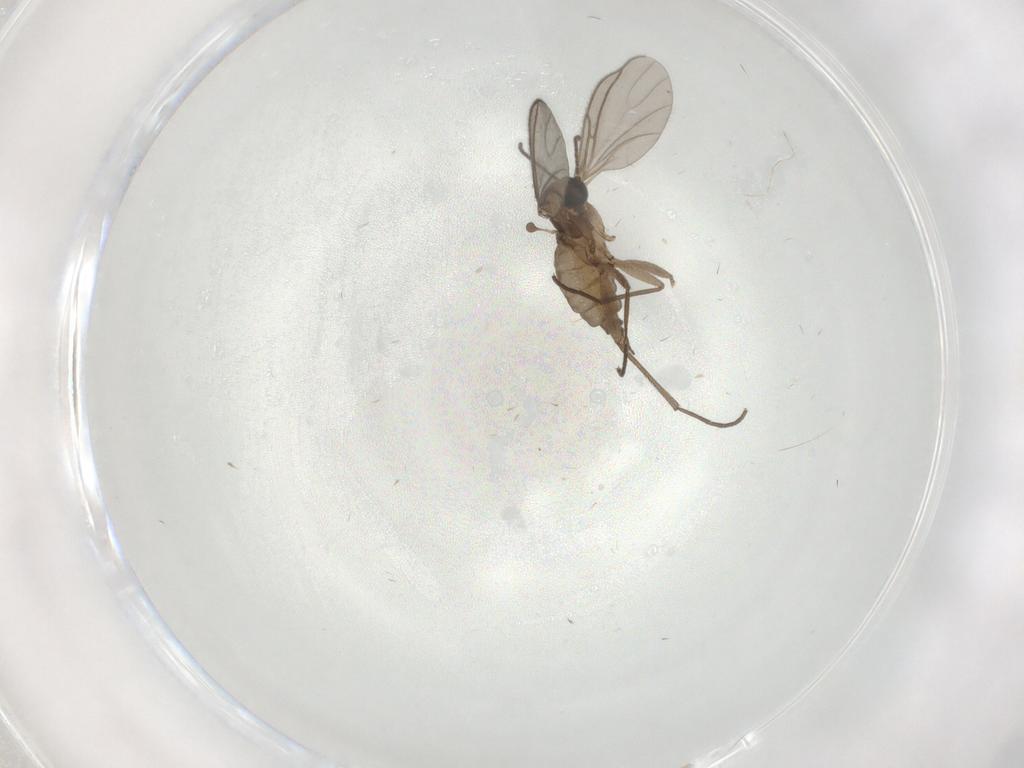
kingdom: Animalia
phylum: Arthropoda
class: Insecta
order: Diptera
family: Sciaridae
